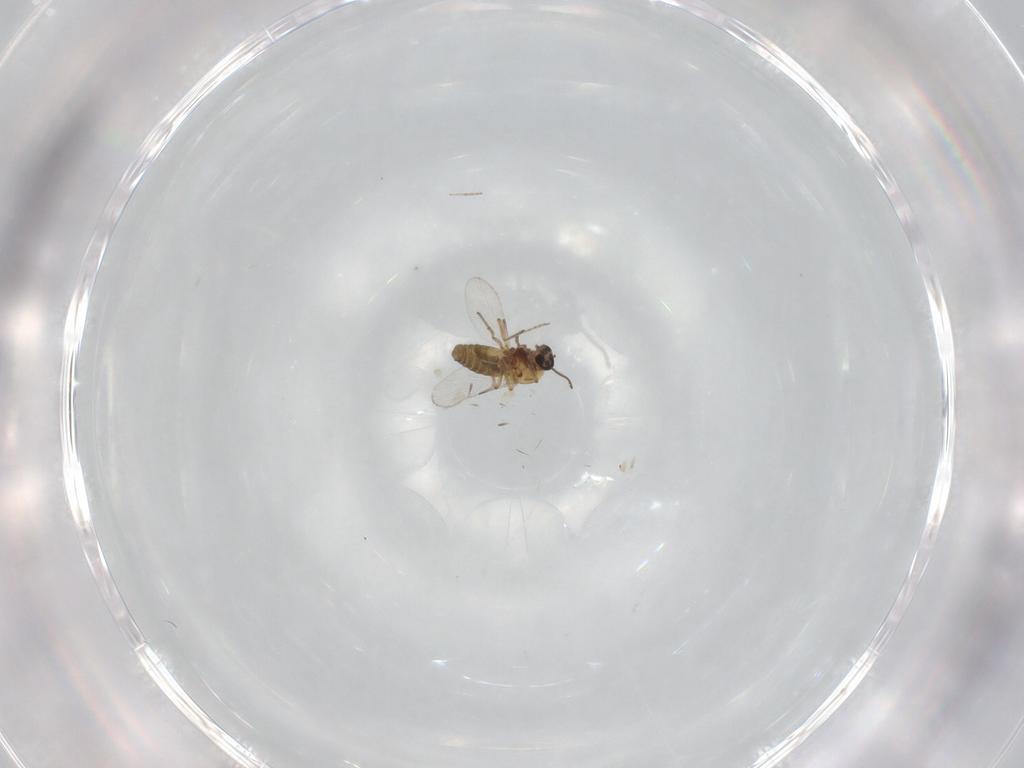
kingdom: Animalia
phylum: Arthropoda
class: Insecta
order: Diptera
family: Ceratopogonidae
